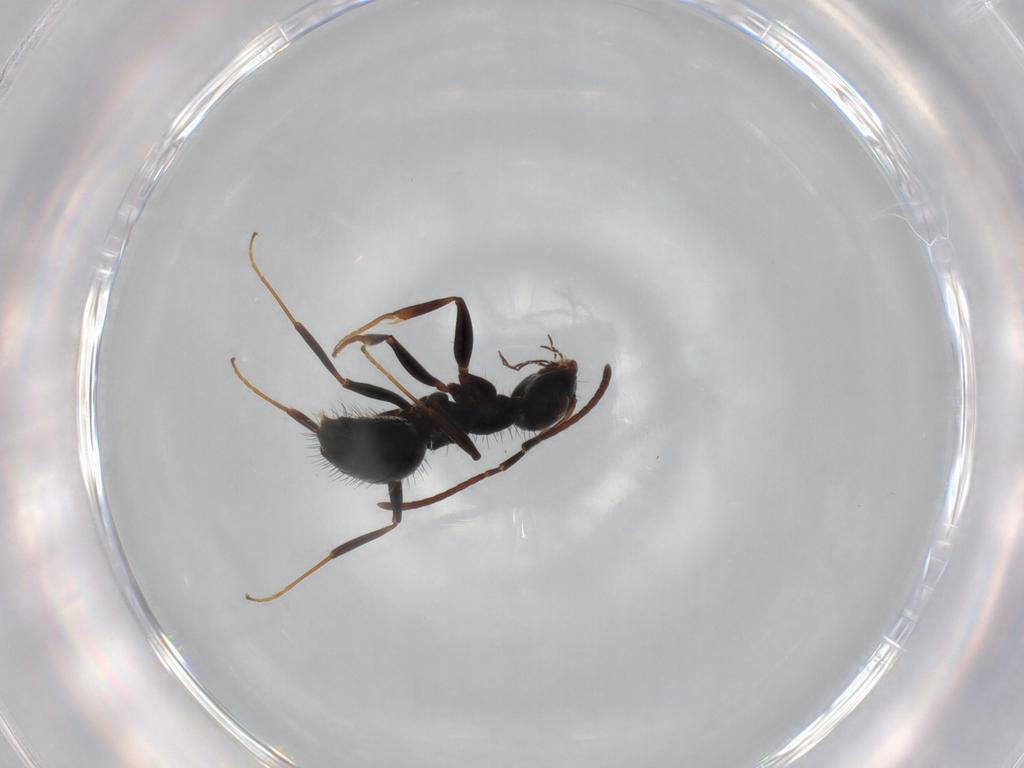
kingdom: Animalia
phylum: Arthropoda
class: Insecta
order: Hymenoptera
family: Formicidae
